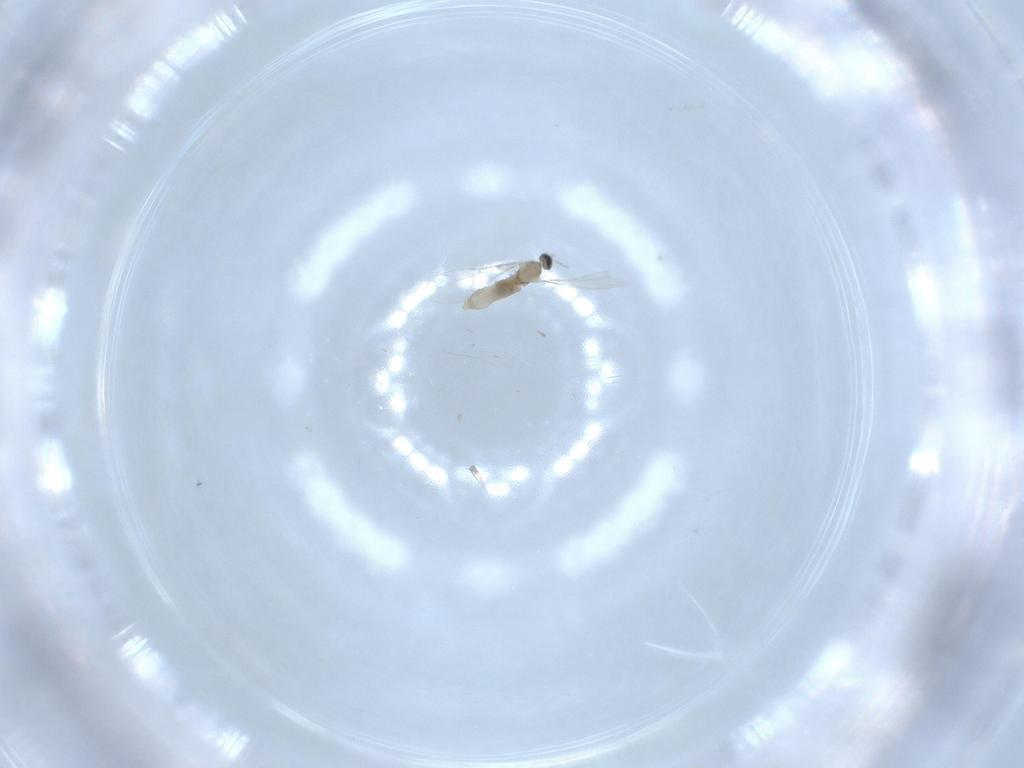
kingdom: Animalia
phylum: Arthropoda
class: Insecta
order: Diptera
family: Cecidomyiidae
